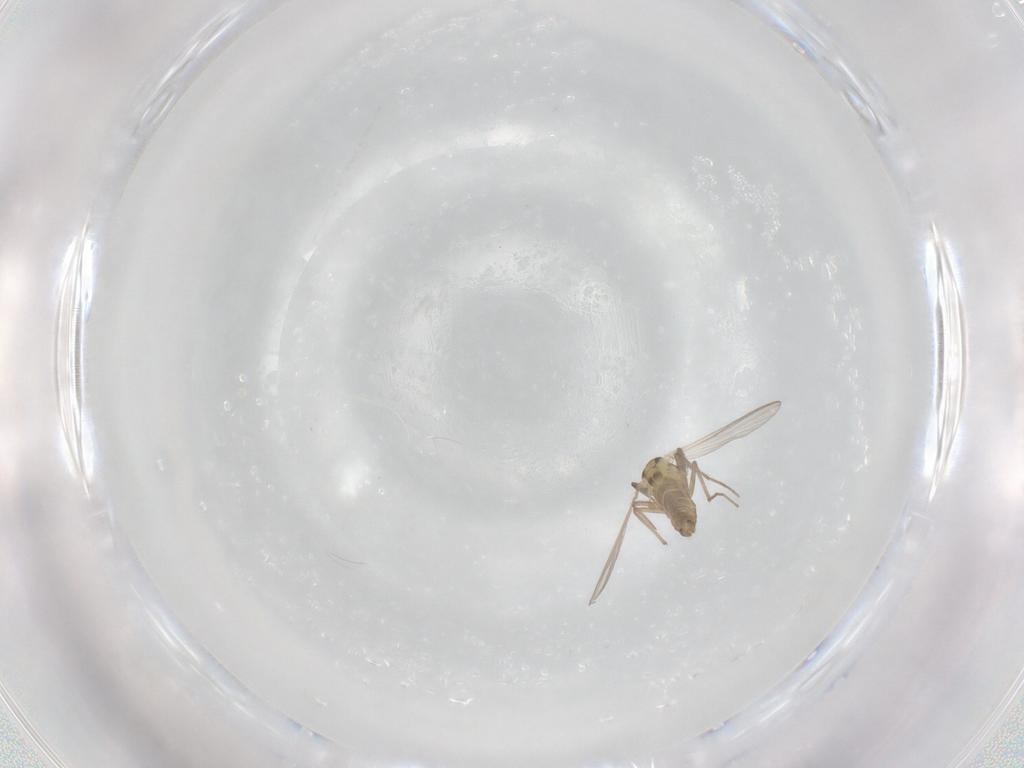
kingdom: Animalia
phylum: Arthropoda
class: Insecta
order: Diptera
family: Chironomidae
